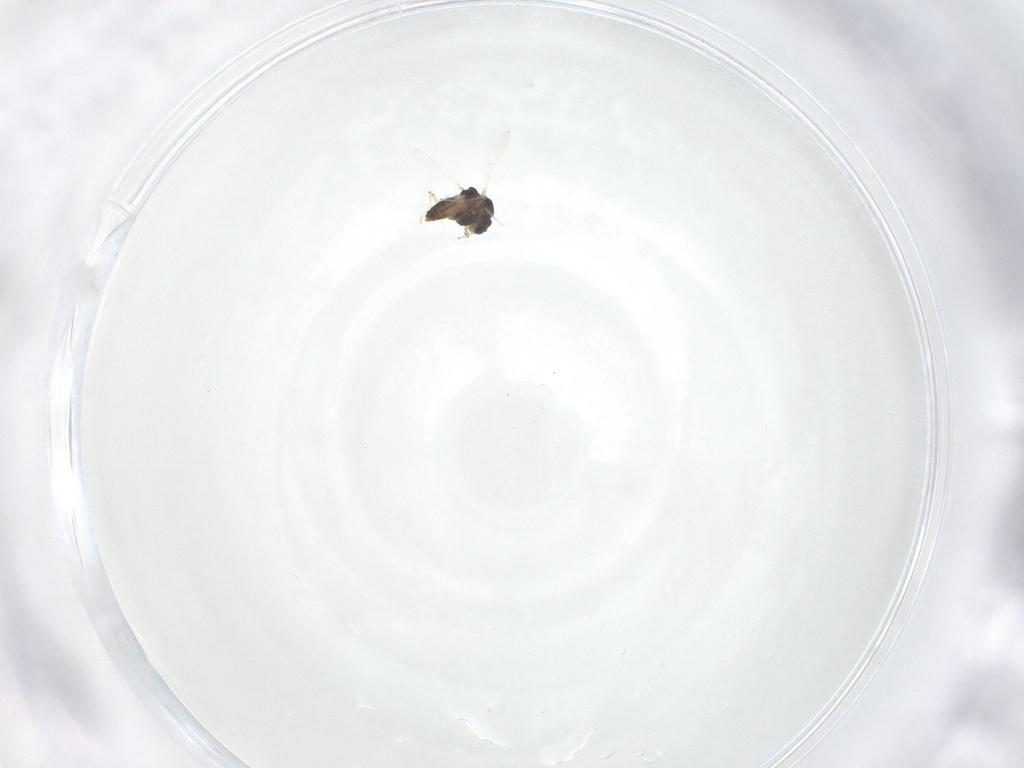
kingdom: Animalia
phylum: Arthropoda
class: Insecta
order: Diptera
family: Chironomidae
